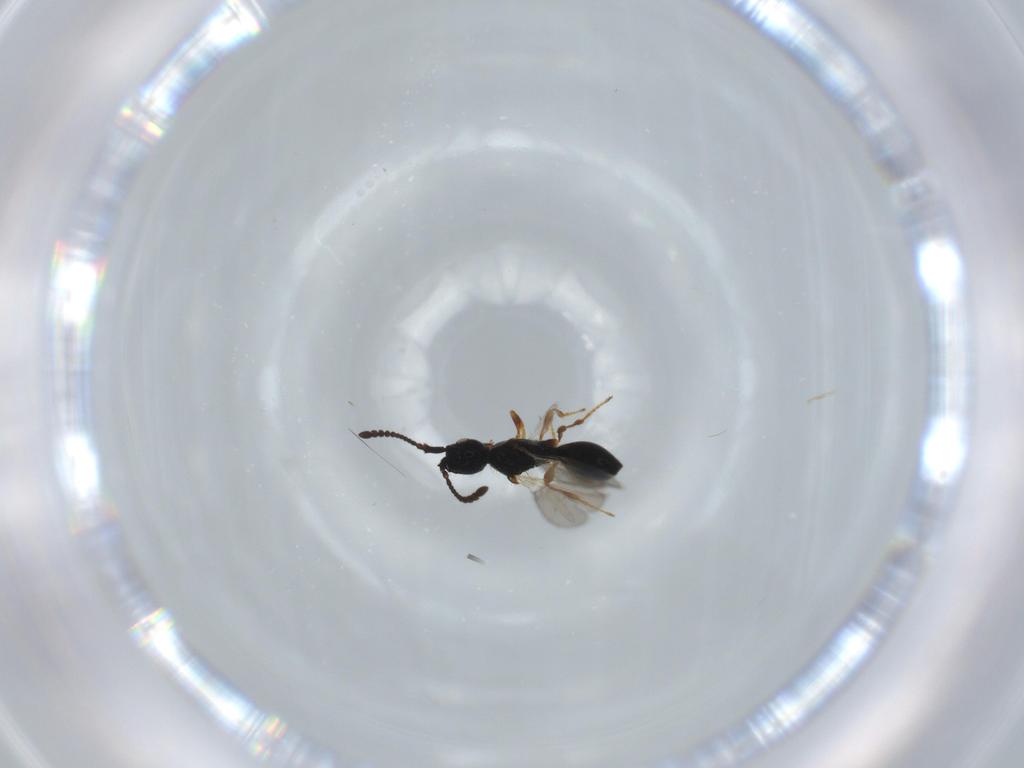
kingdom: Animalia
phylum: Arthropoda
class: Insecta
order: Hymenoptera
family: Diapriidae
